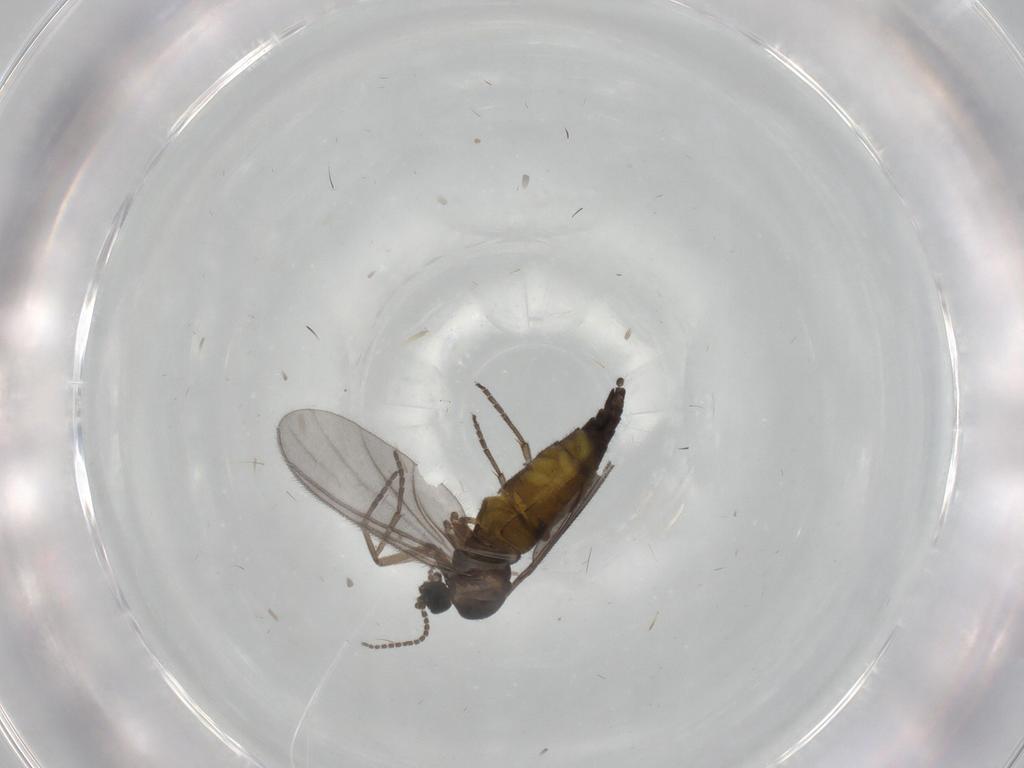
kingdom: Animalia
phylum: Arthropoda
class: Insecta
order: Diptera
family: Sciaridae
